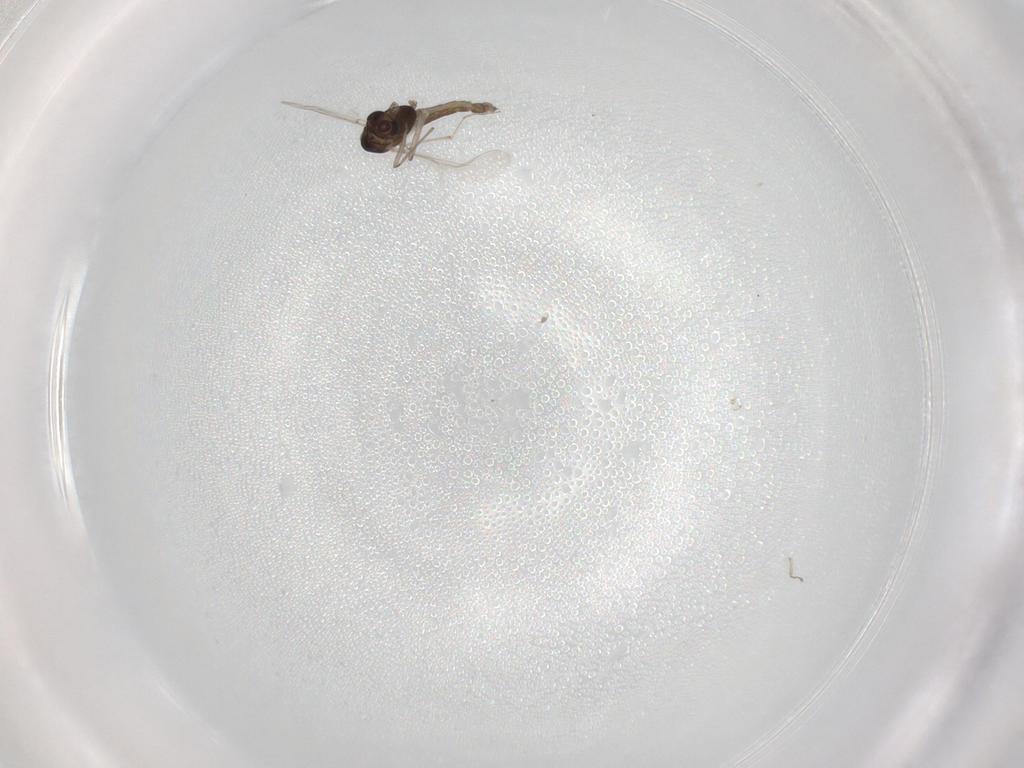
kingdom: Animalia
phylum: Arthropoda
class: Insecta
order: Diptera
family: Chironomidae
